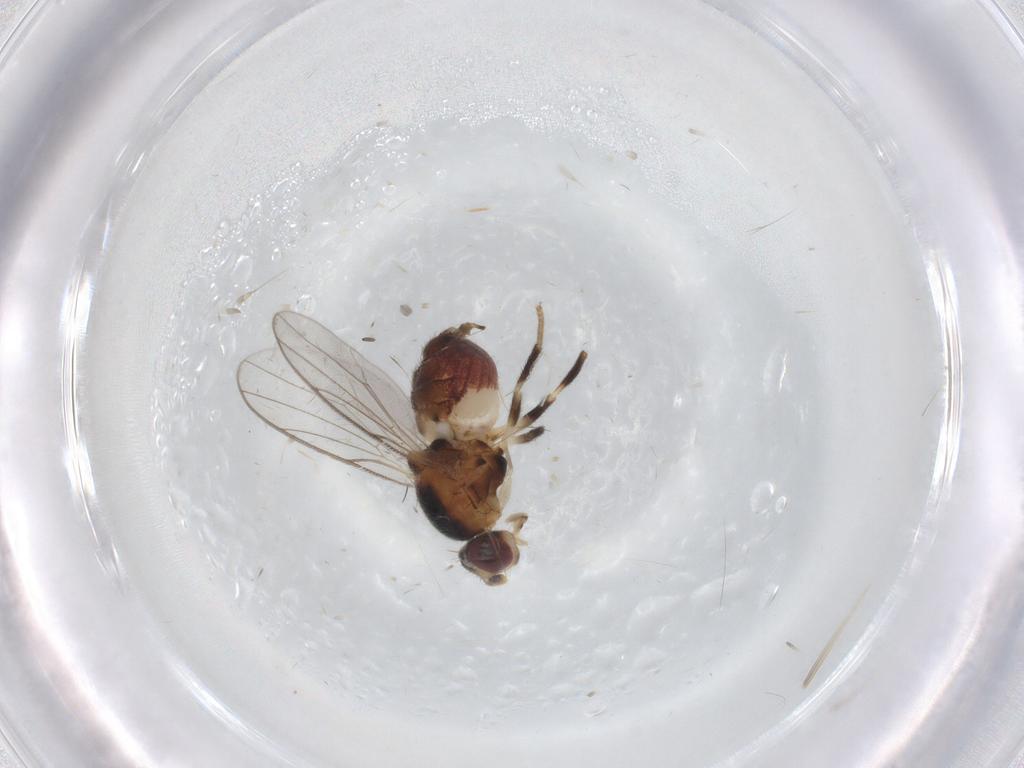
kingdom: Animalia
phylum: Arthropoda
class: Insecta
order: Diptera
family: Chloropidae
